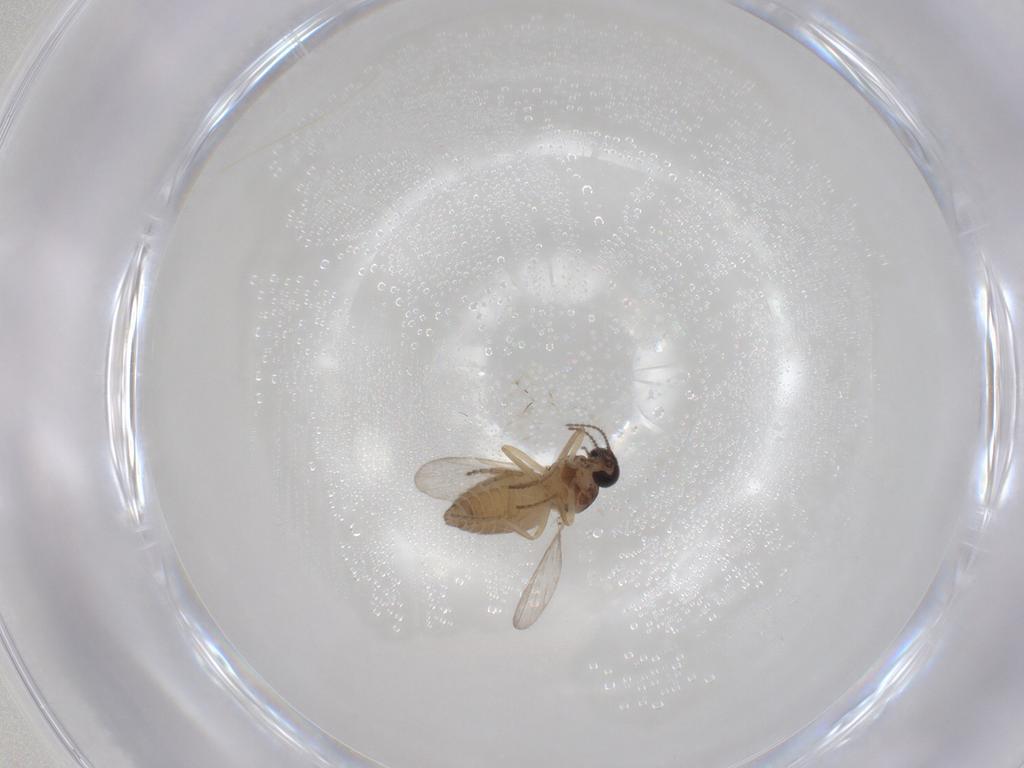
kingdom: Animalia
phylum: Arthropoda
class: Insecta
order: Diptera
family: Ceratopogonidae
